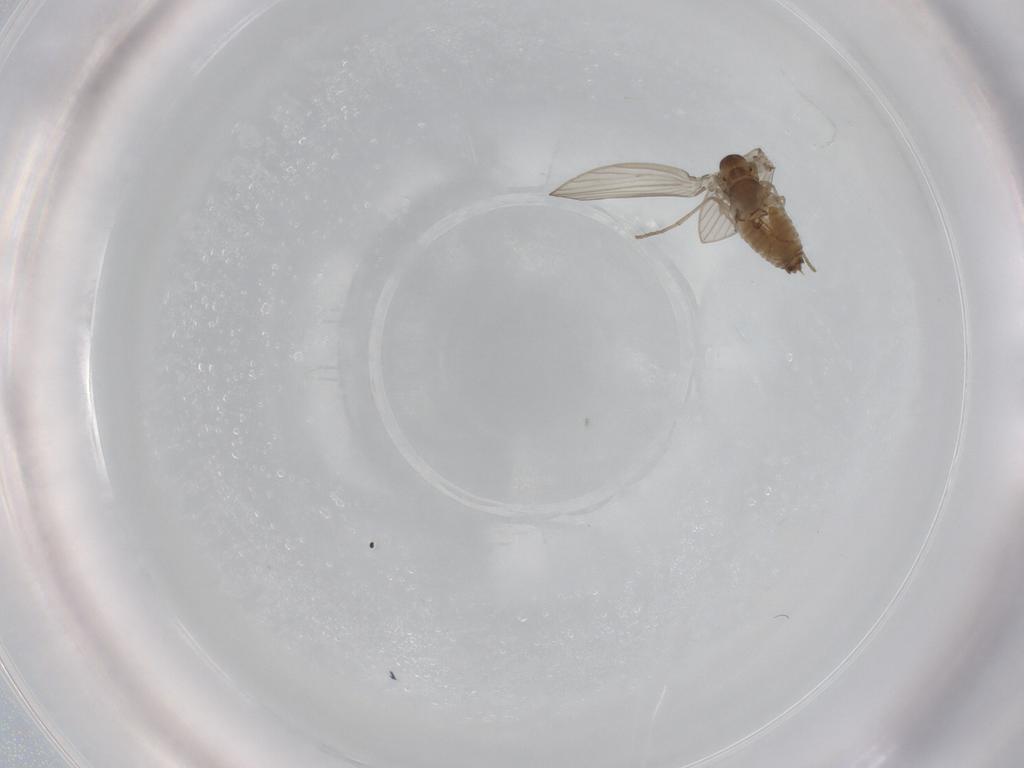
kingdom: Animalia
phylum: Arthropoda
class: Insecta
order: Diptera
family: Psychodidae
